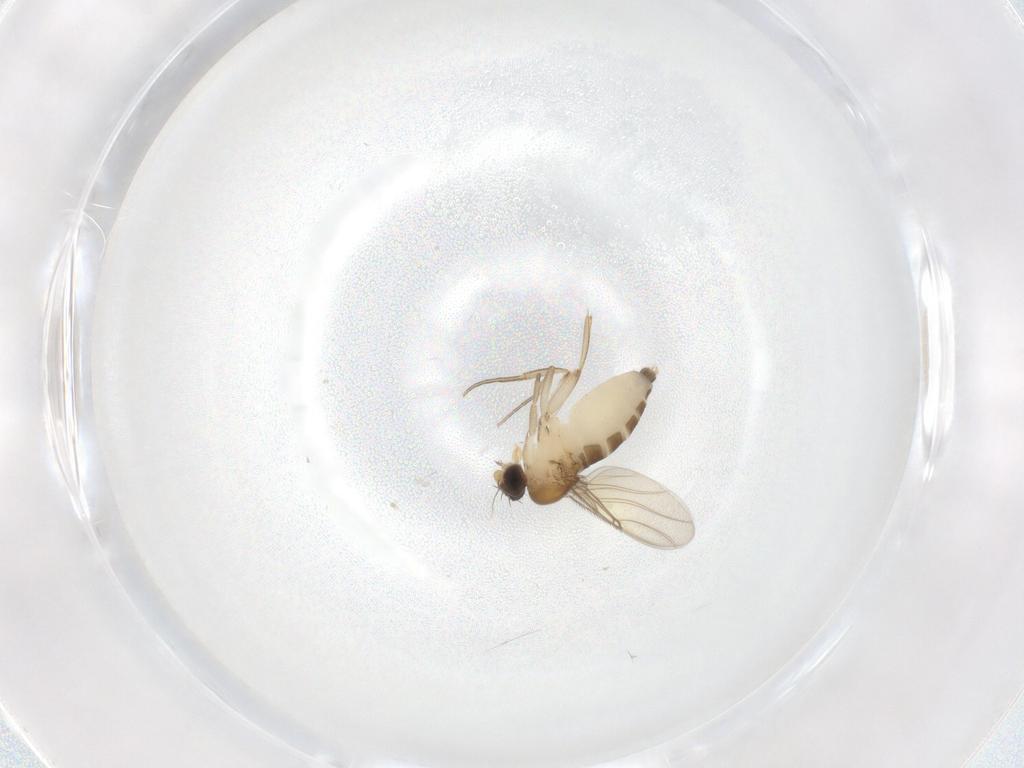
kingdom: Animalia
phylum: Arthropoda
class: Insecta
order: Diptera
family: Phoridae
